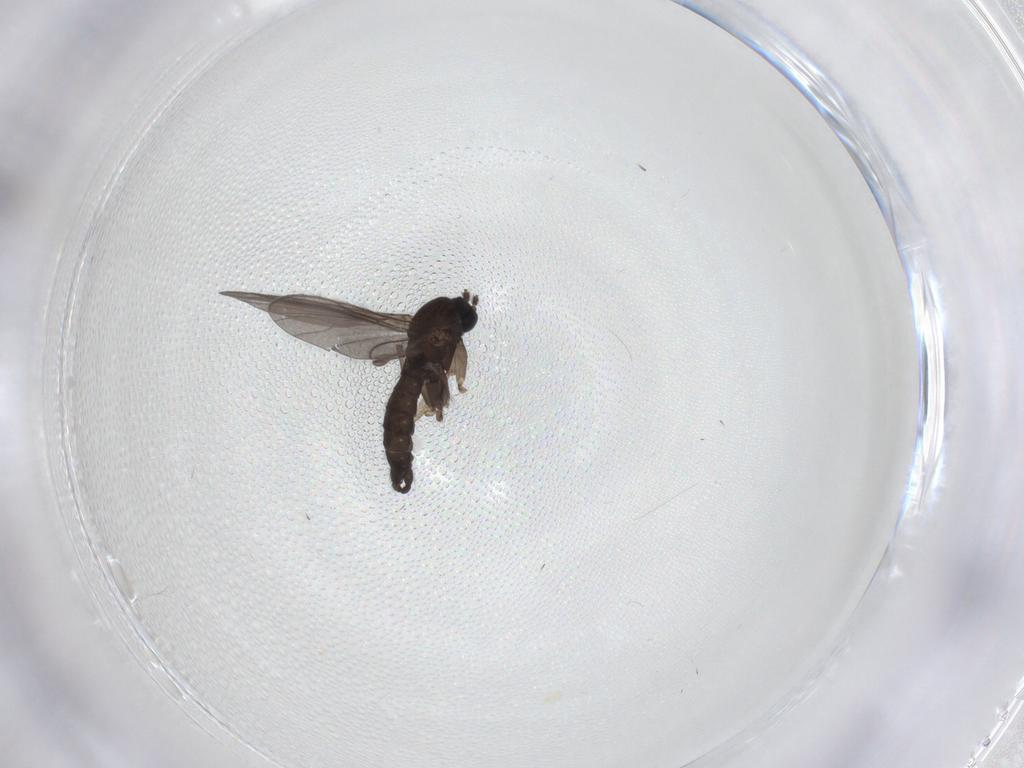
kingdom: Animalia
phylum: Arthropoda
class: Insecta
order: Diptera
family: Sciaridae
